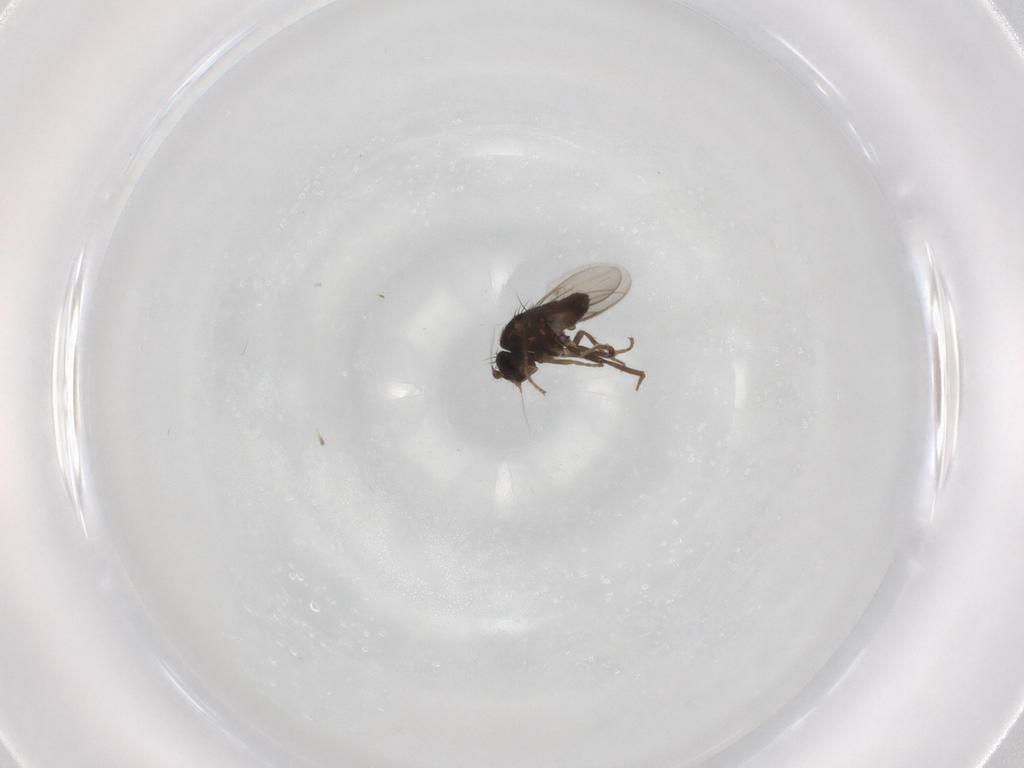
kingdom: Animalia
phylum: Arthropoda
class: Insecta
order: Diptera
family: Sphaeroceridae
